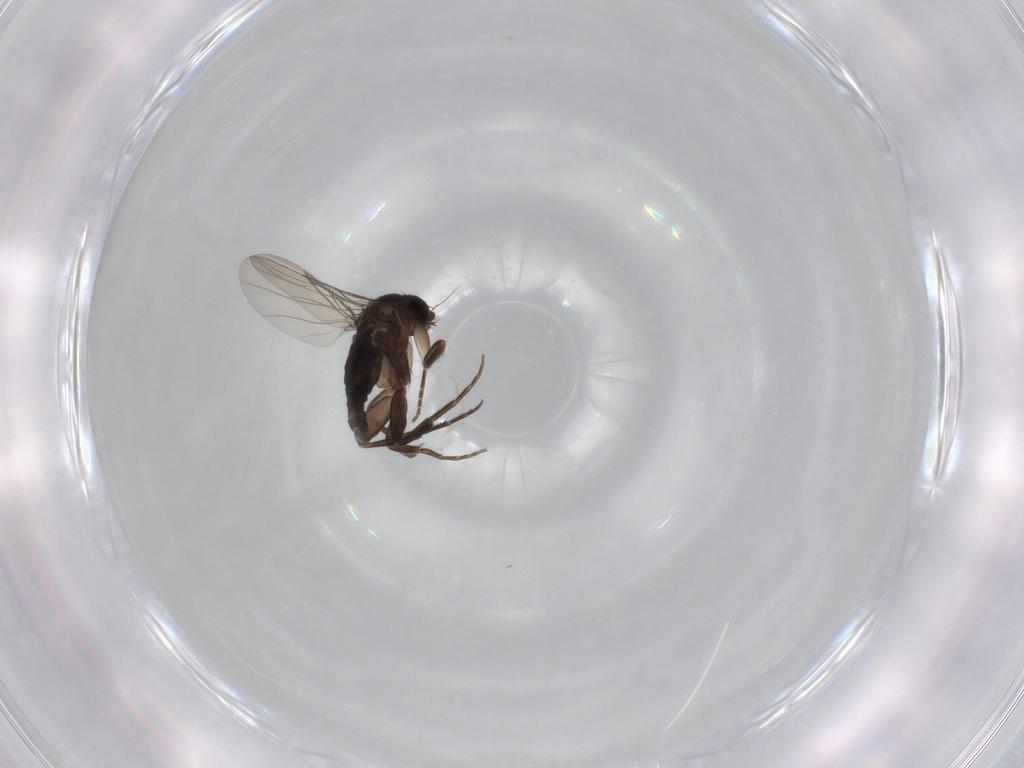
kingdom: Animalia
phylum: Arthropoda
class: Insecta
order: Diptera
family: Phoridae
